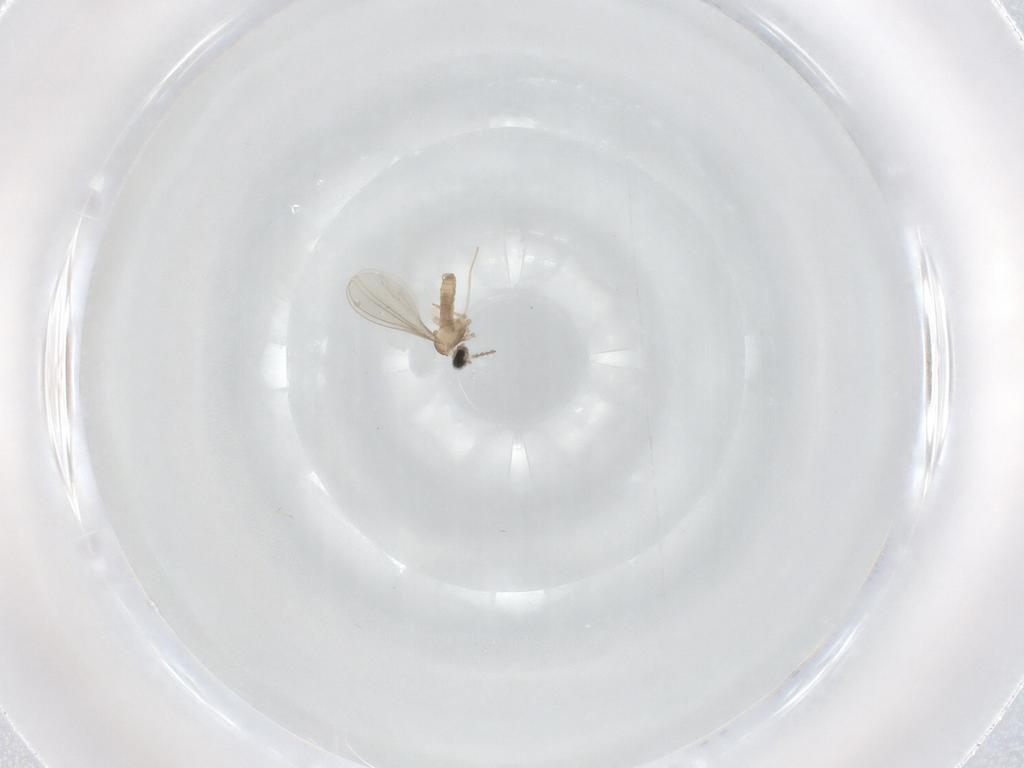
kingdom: Animalia
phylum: Arthropoda
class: Insecta
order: Diptera
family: Cecidomyiidae
